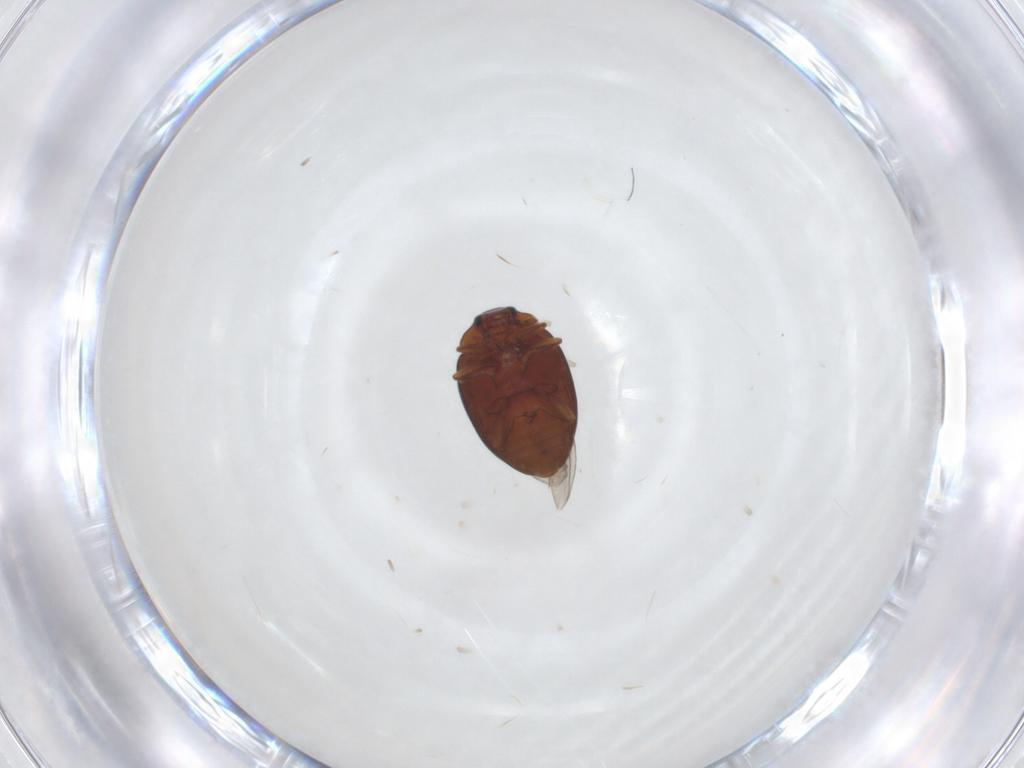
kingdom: Animalia
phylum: Arthropoda
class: Insecta
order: Coleoptera
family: Coccinellidae
